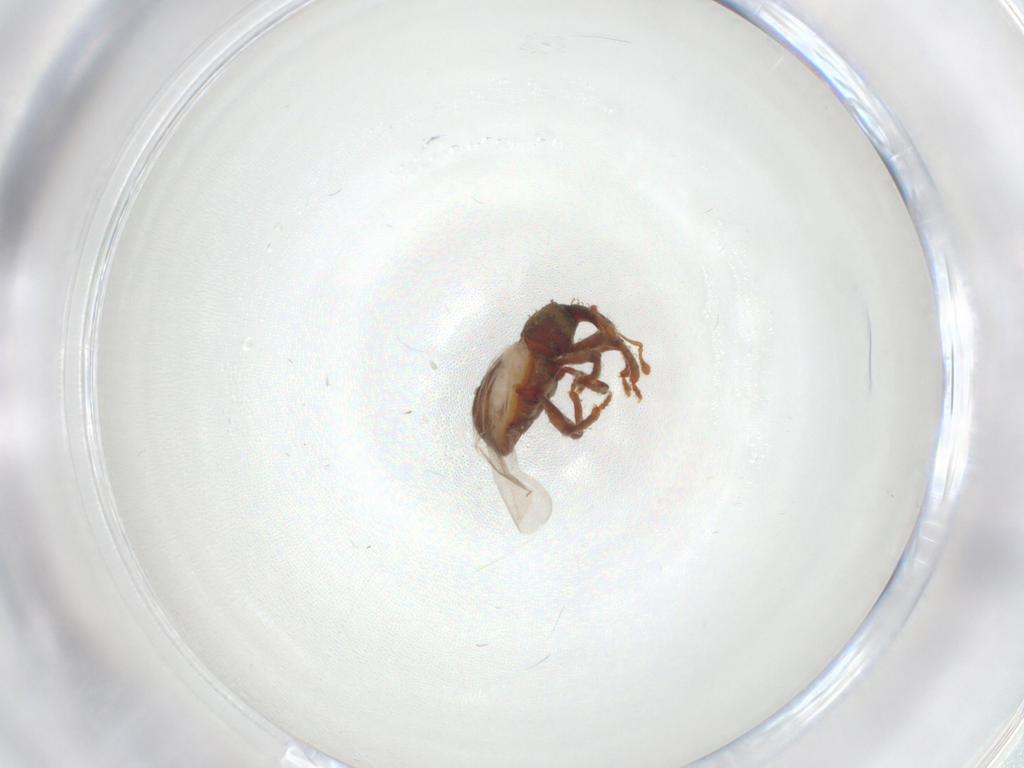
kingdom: Animalia
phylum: Arthropoda
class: Insecta
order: Coleoptera
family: Curculionidae
